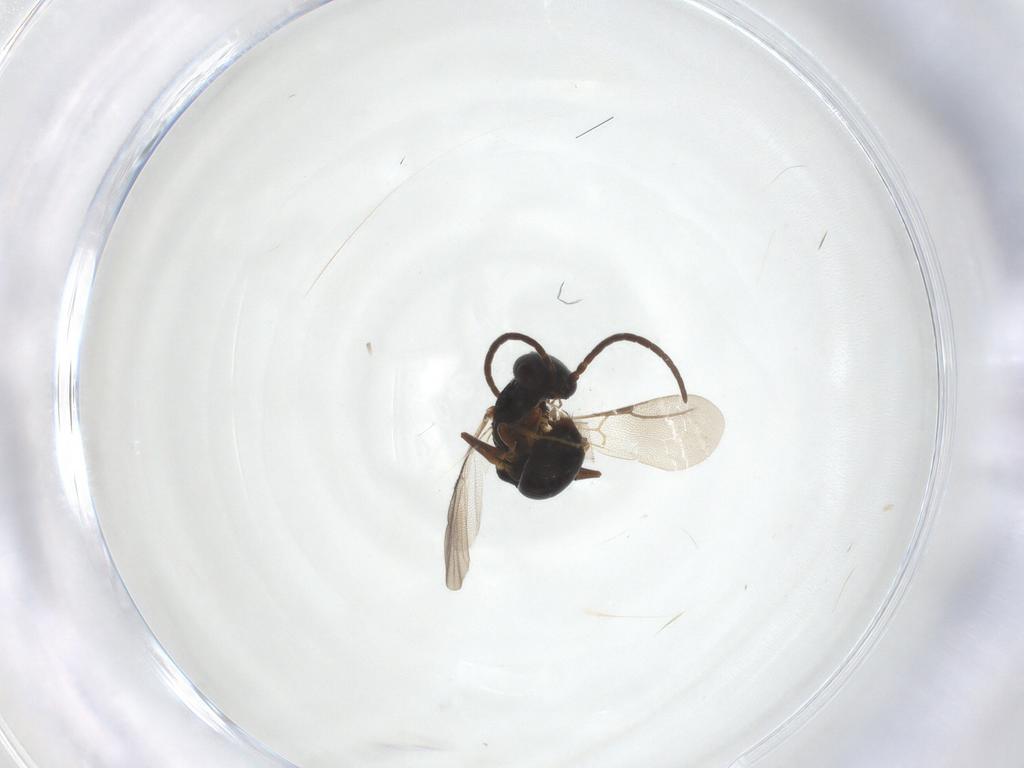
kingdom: Animalia
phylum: Arthropoda
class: Insecta
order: Hymenoptera
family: Bethylidae
